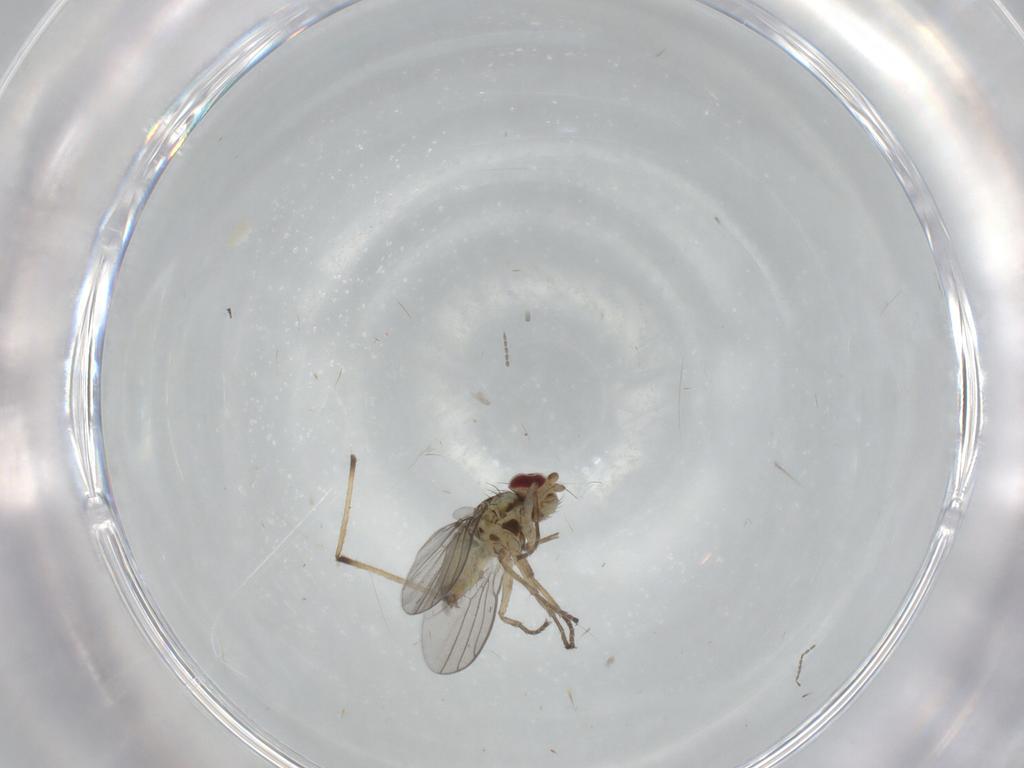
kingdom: Animalia
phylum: Arthropoda
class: Insecta
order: Diptera
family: Chironomidae
